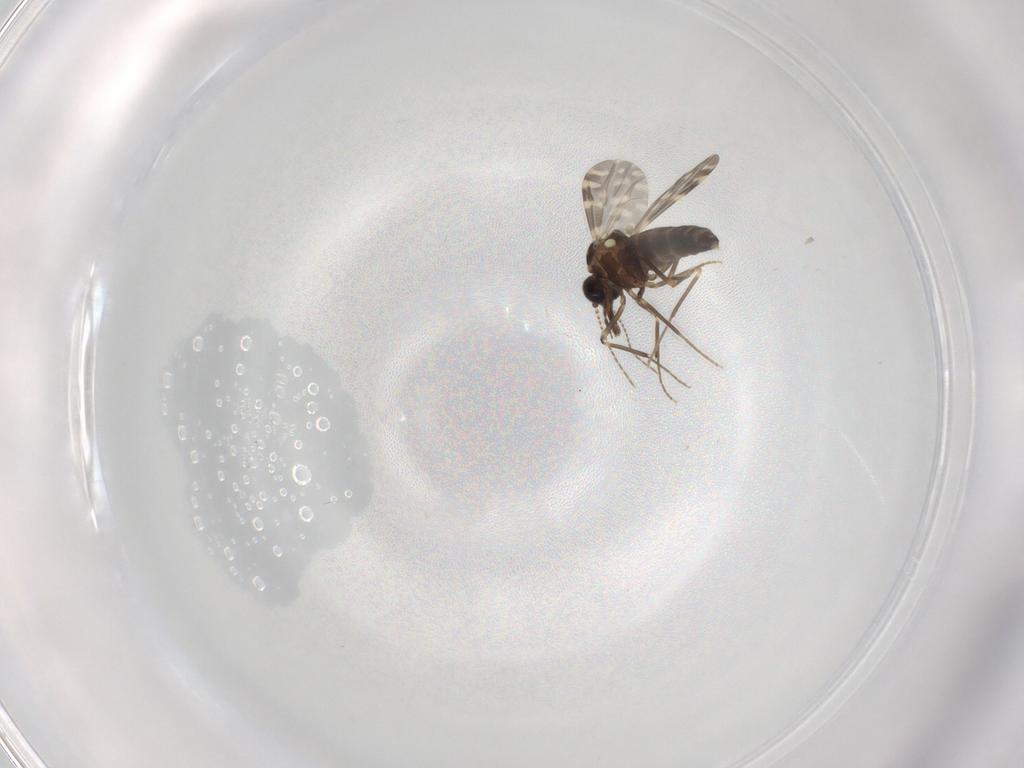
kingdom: Animalia
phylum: Arthropoda
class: Insecta
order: Diptera
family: Ceratopogonidae
